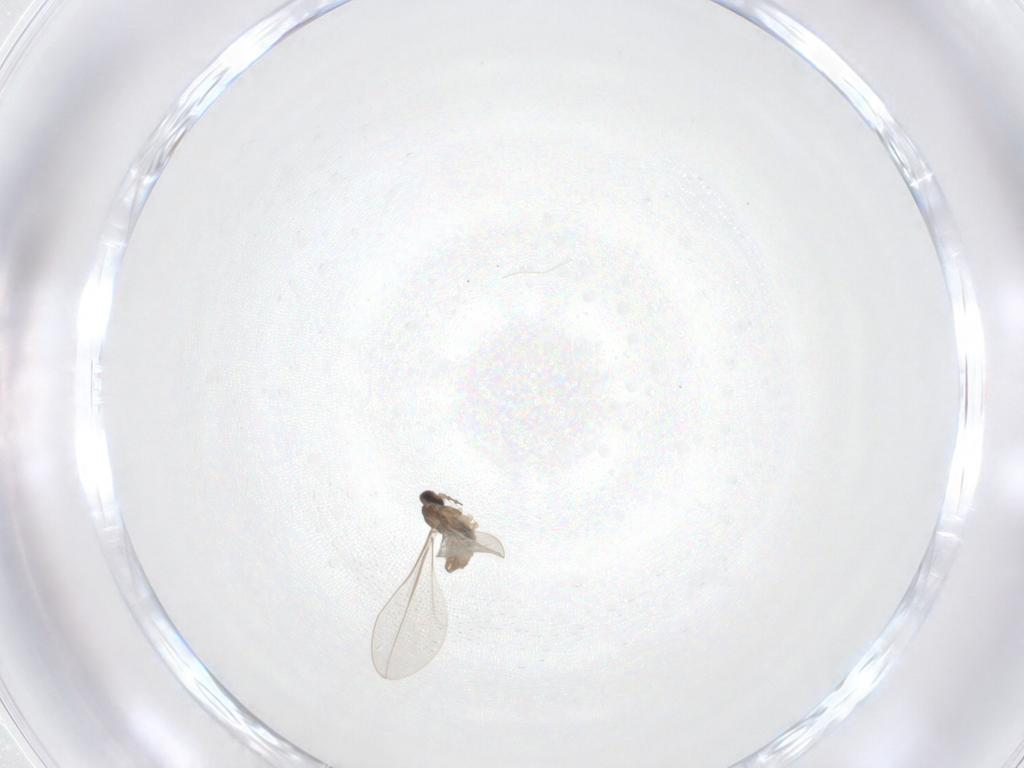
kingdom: Animalia
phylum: Arthropoda
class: Insecta
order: Diptera
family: Cecidomyiidae
